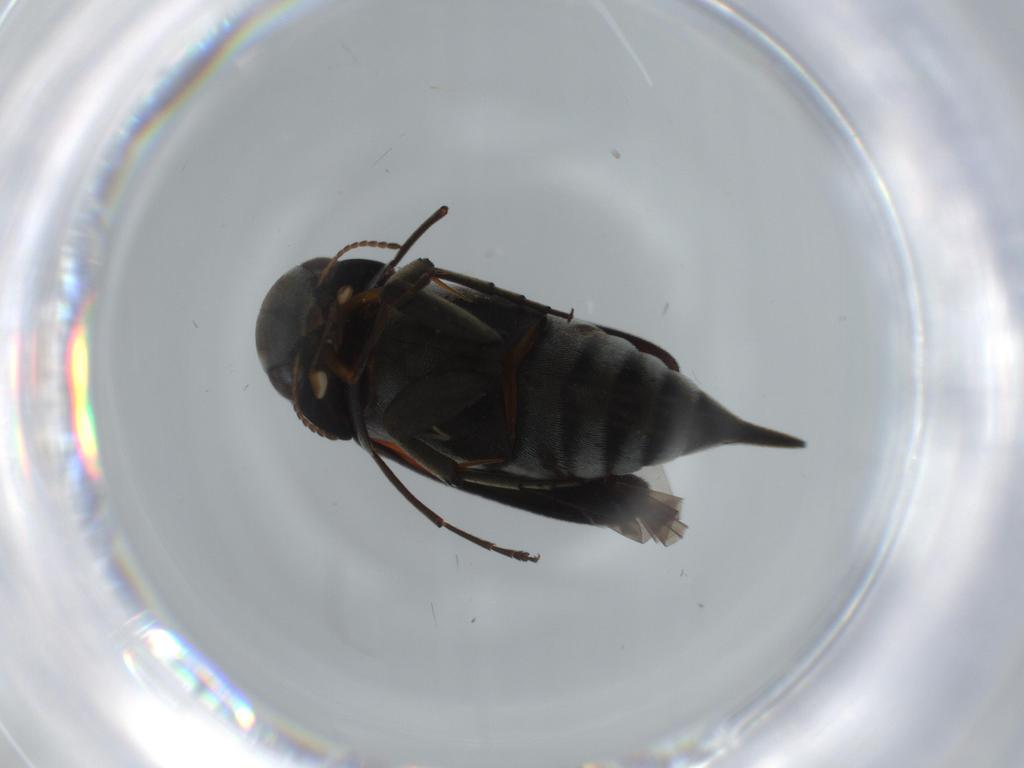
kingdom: Animalia
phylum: Arthropoda
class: Insecta
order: Coleoptera
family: Mordellidae
